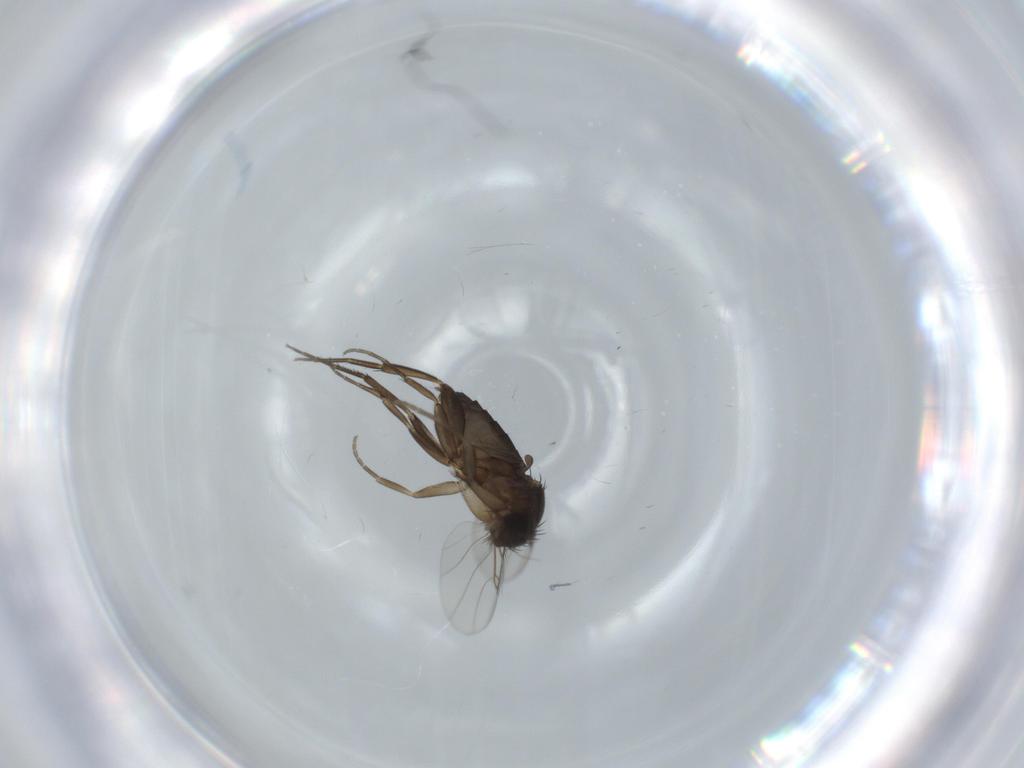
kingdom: Animalia
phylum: Arthropoda
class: Insecta
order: Diptera
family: Phoridae
